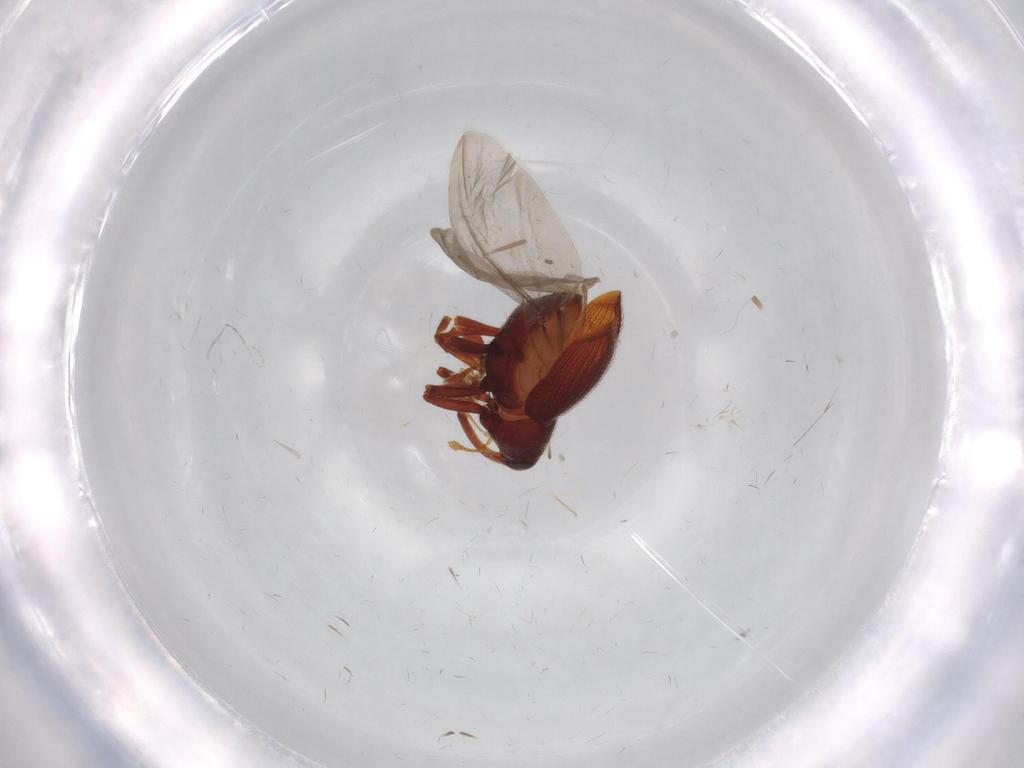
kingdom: Animalia
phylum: Arthropoda
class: Insecta
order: Coleoptera
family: Curculionidae
